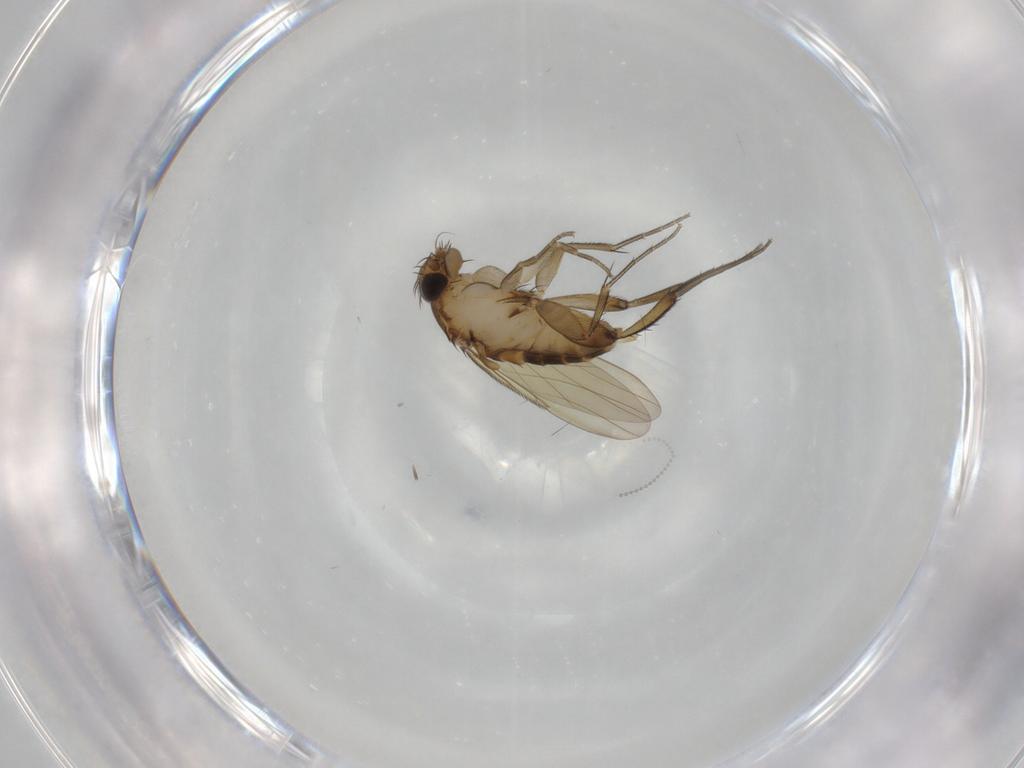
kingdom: Animalia
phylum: Arthropoda
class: Insecta
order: Diptera
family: Phoridae
